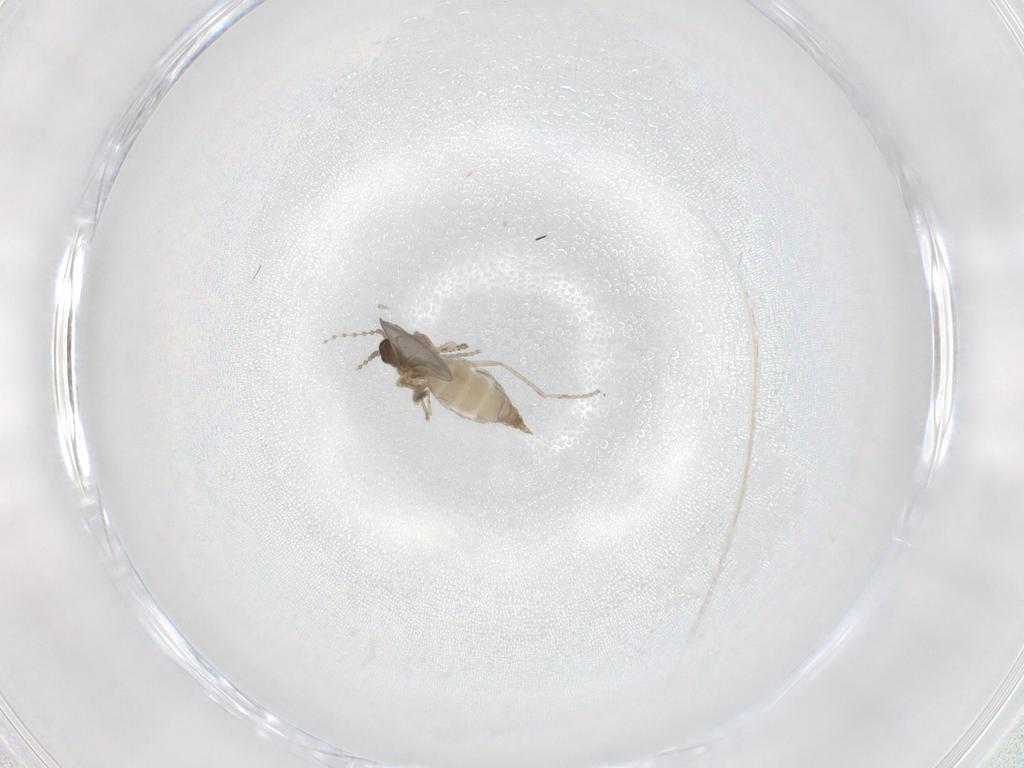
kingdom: Animalia
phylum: Arthropoda
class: Insecta
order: Diptera
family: Cecidomyiidae
